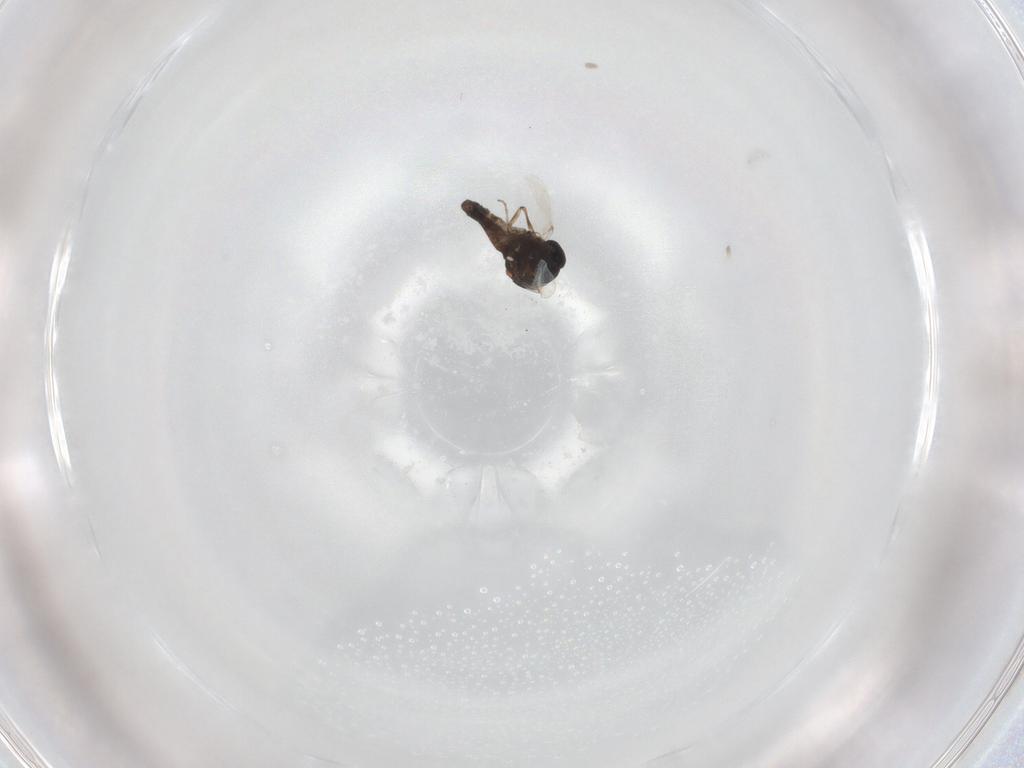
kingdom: Animalia
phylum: Arthropoda
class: Insecta
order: Diptera
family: Ceratopogonidae
